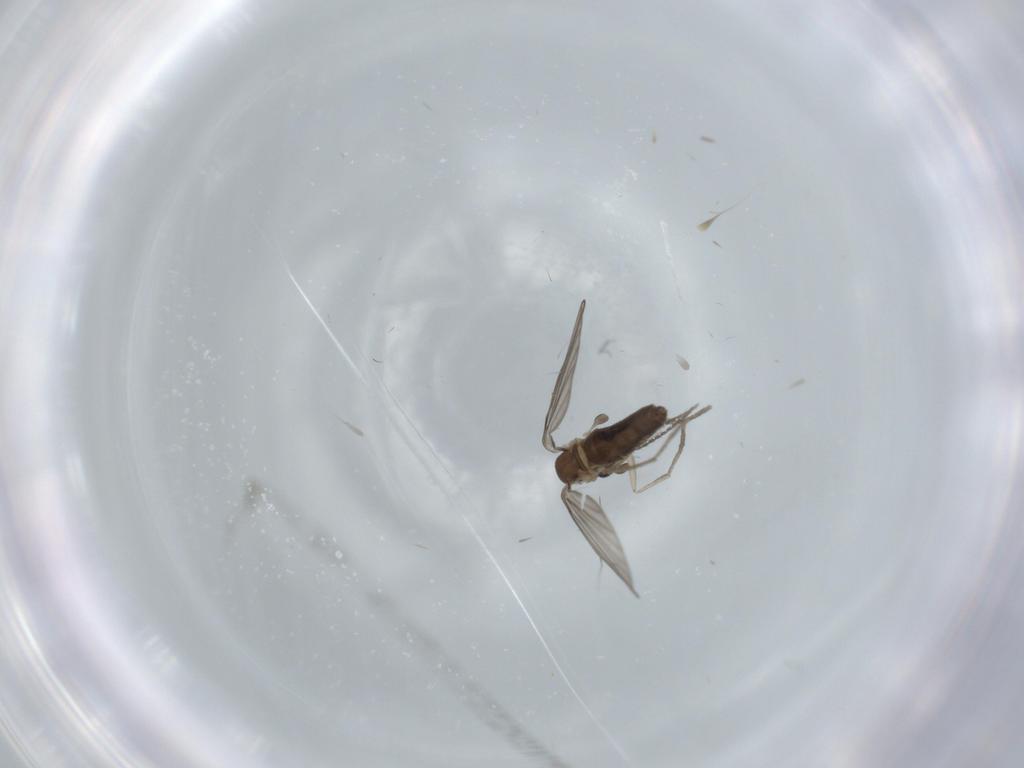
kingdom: Animalia
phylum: Arthropoda
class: Insecta
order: Diptera
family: Psychodidae
